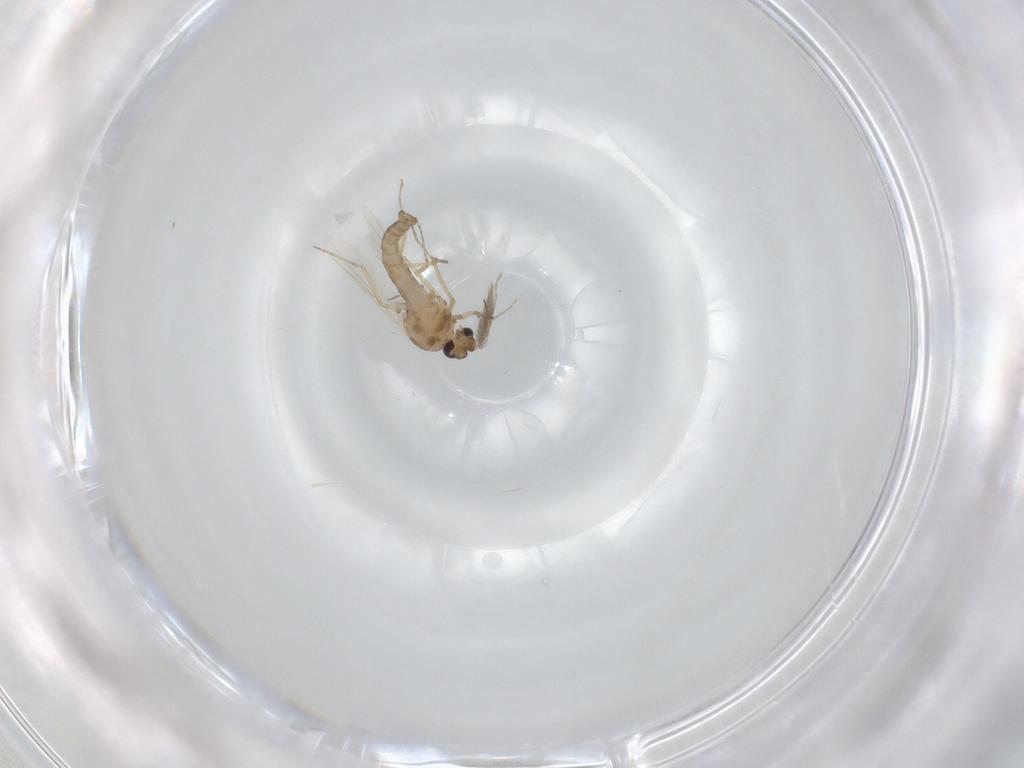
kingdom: Animalia
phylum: Arthropoda
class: Insecta
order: Diptera
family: Ceratopogonidae
